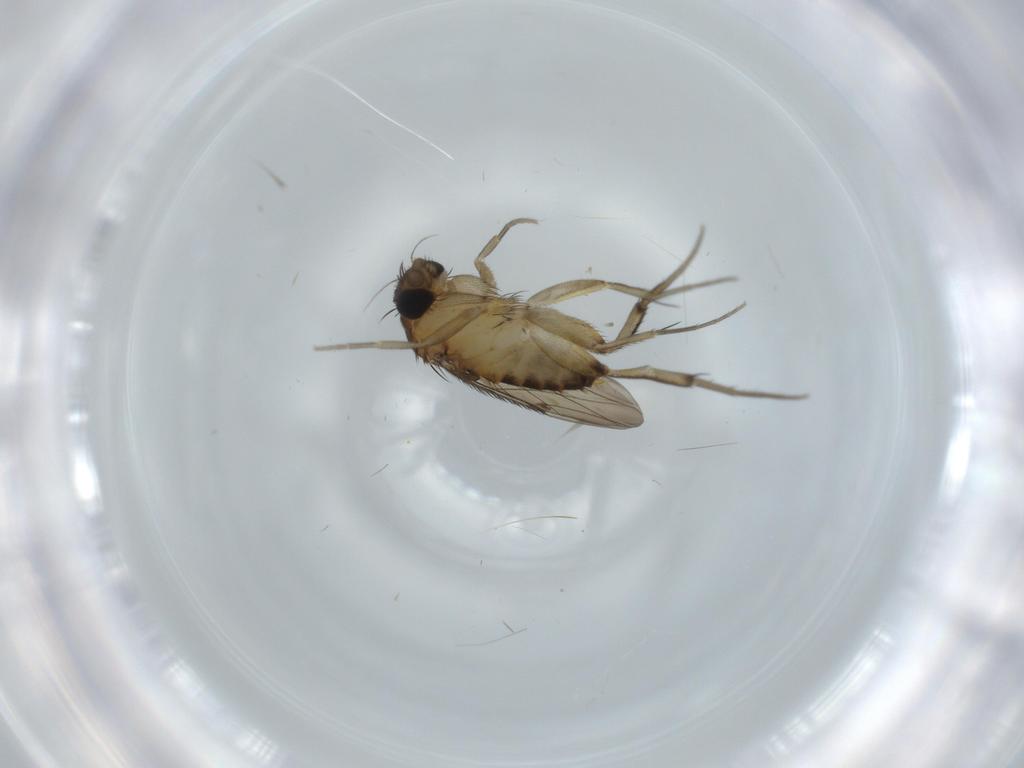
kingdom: Animalia
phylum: Arthropoda
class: Insecta
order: Diptera
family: Phoridae
